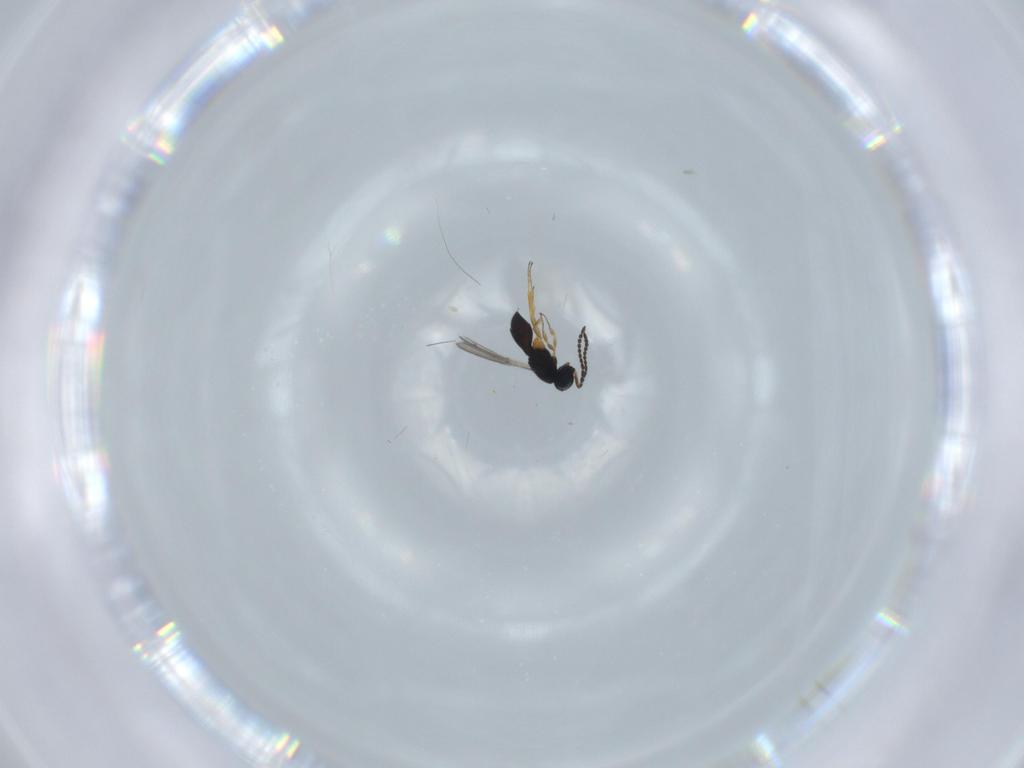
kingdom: Animalia
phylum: Arthropoda
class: Insecta
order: Hymenoptera
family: Scelionidae
